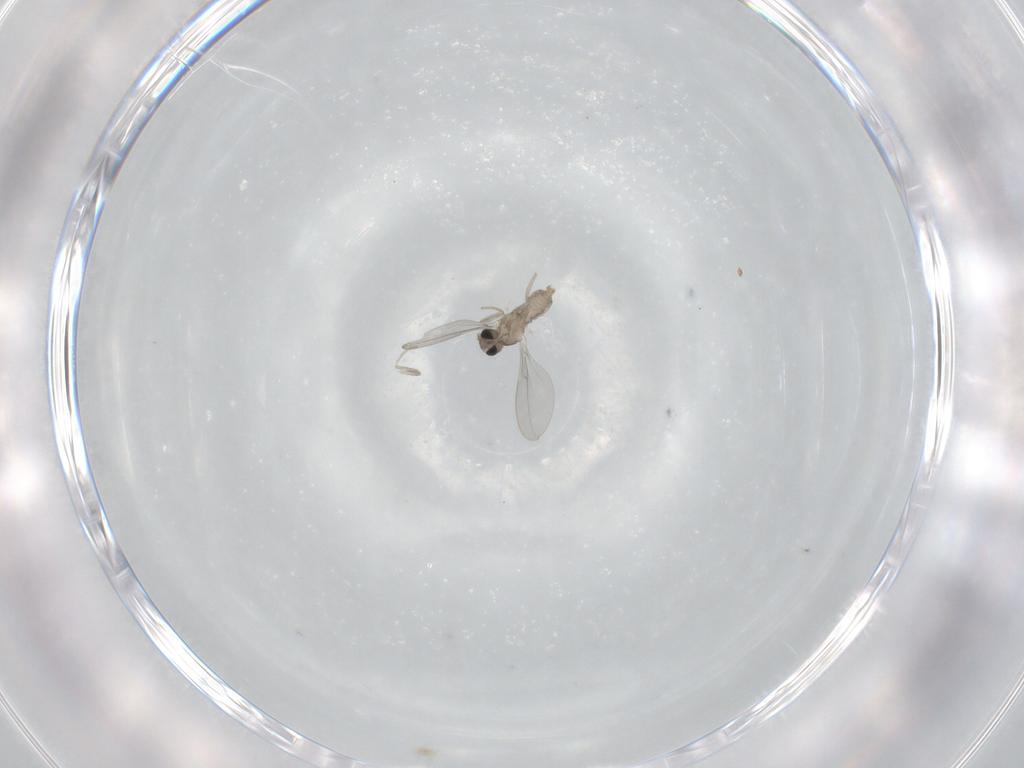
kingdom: Animalia
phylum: Arthropoda
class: Insecta
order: Diptera
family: Cecidomyiidae
